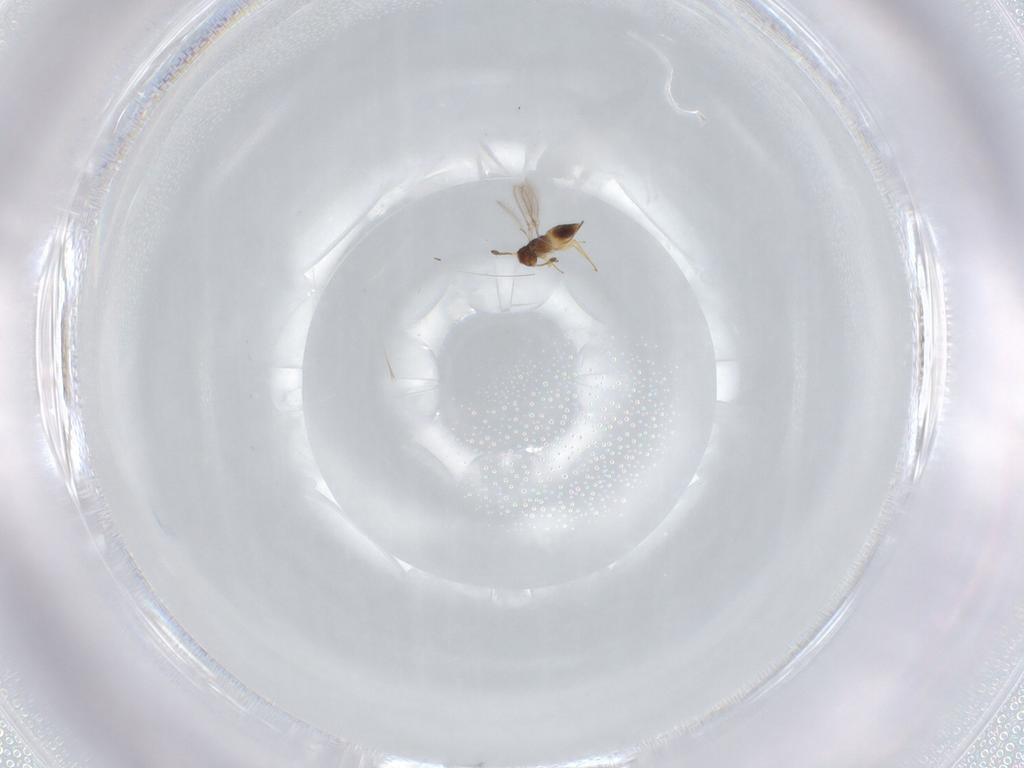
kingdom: Animalia
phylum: Arthropoda
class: Insecta
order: Hymenoptera
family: Mymaridae
